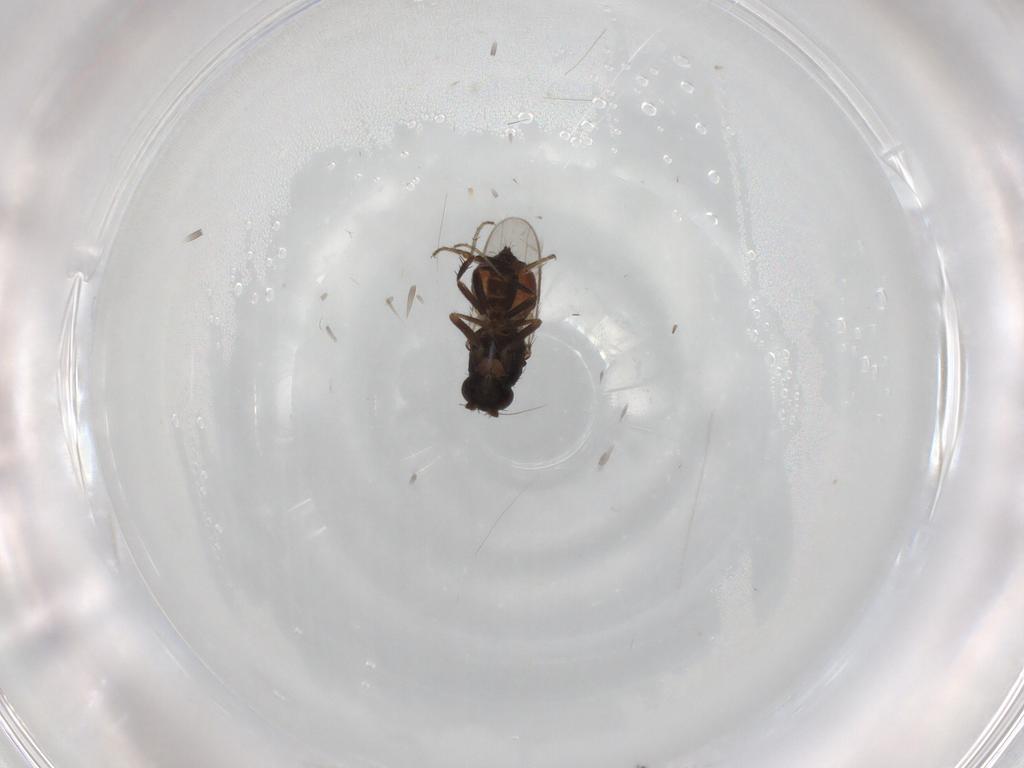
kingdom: Animalia
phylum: Arthropoda
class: Insecta
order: Diptera
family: Sphaeroceridae
